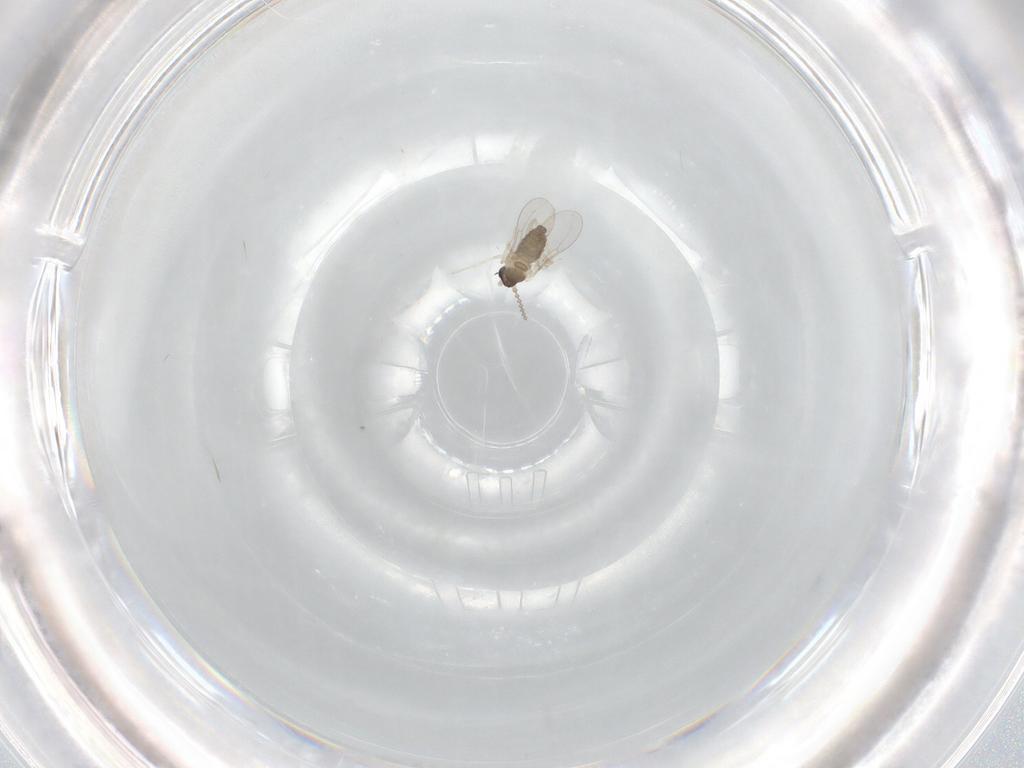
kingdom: Animalia
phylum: Arthropoda
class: Insecta
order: Diptera
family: Cecidomyiidae
